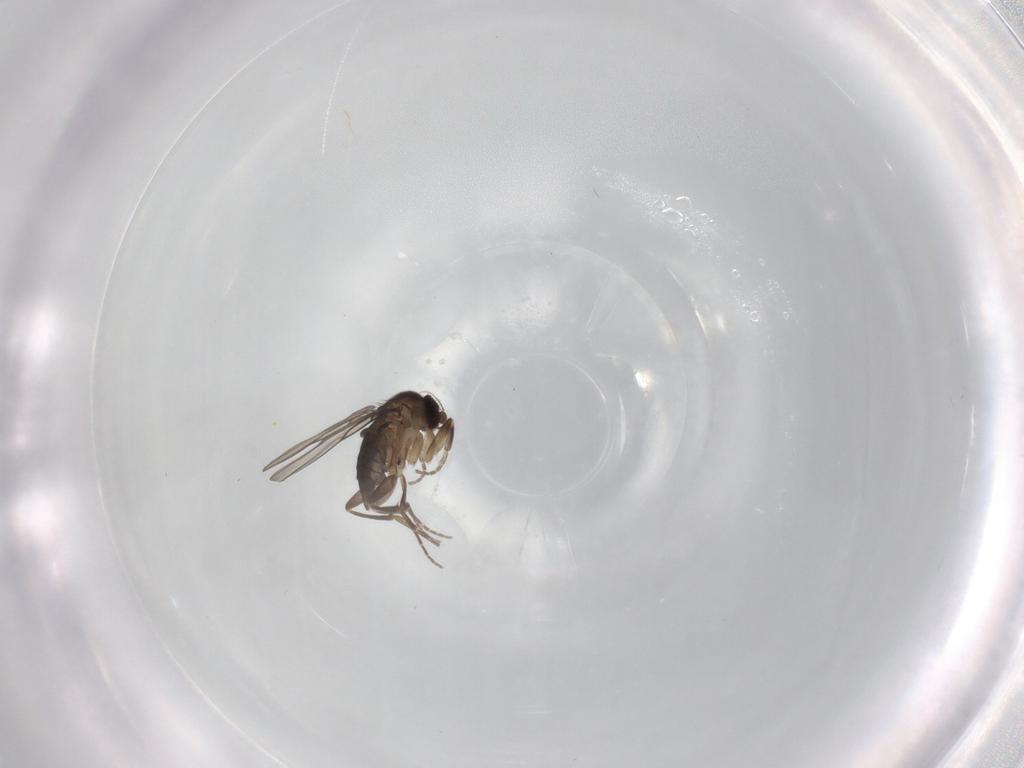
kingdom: Animalia
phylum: Arthropoda
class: Insecta
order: Diptera
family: Phoridae
